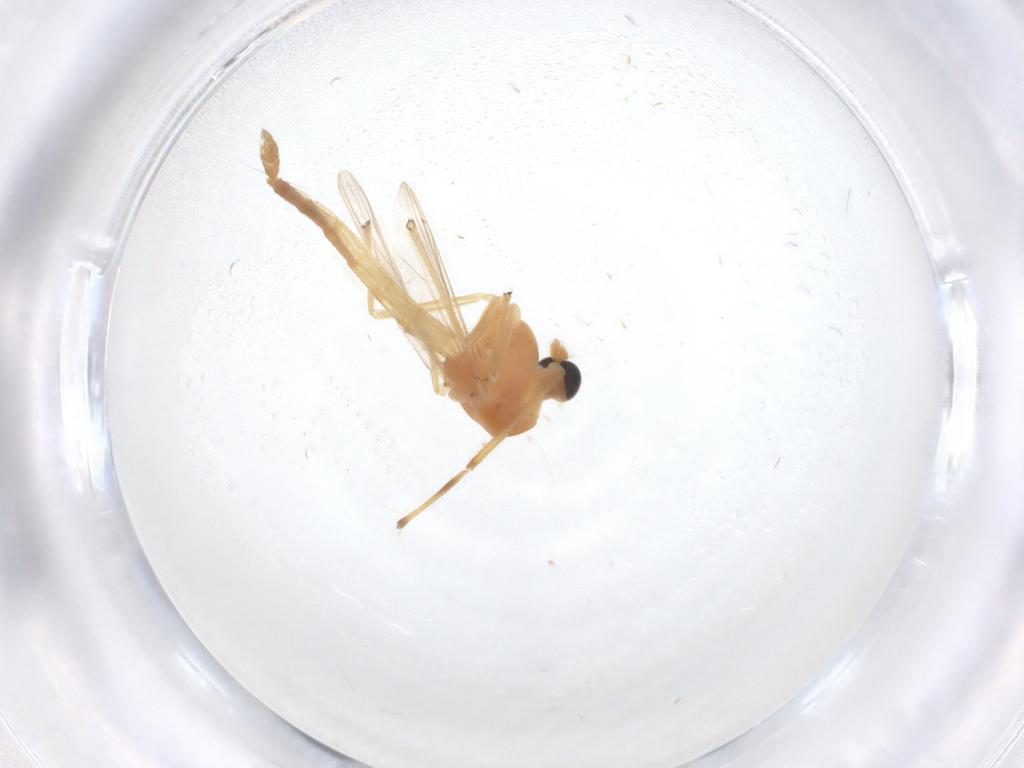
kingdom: Animalia
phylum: Arthropoda
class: Insecta
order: Diptera
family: Chironomidae
